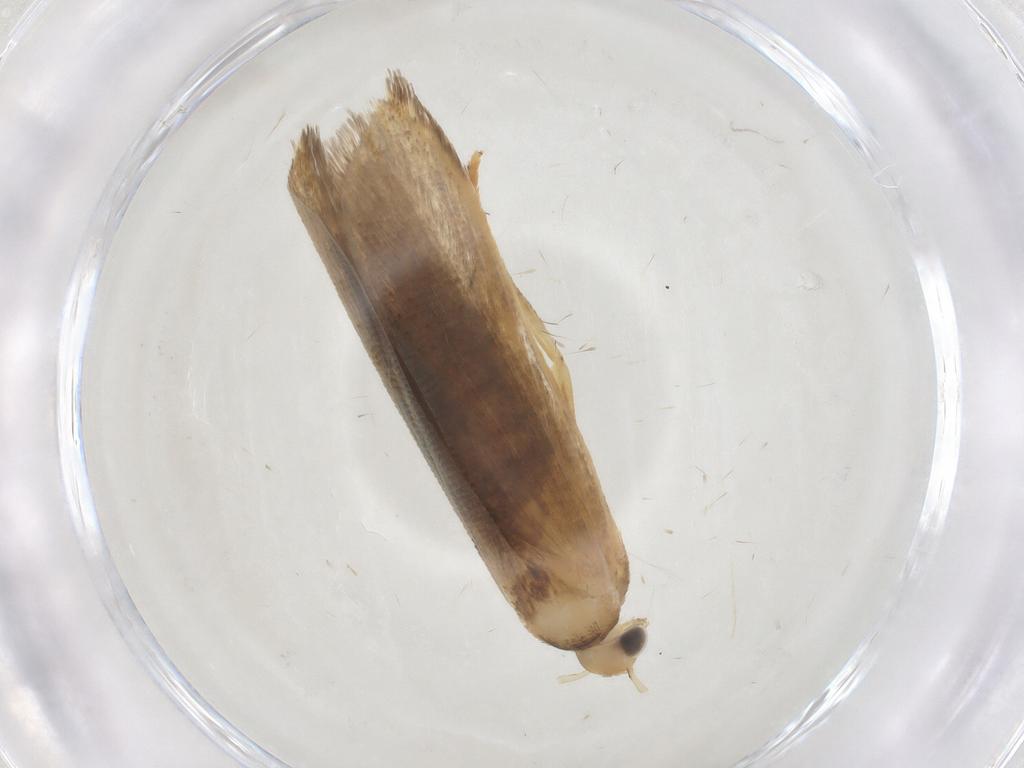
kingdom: Animalia
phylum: Arthropoda
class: Insecta
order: Lepidoptera
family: Gelechiidae
